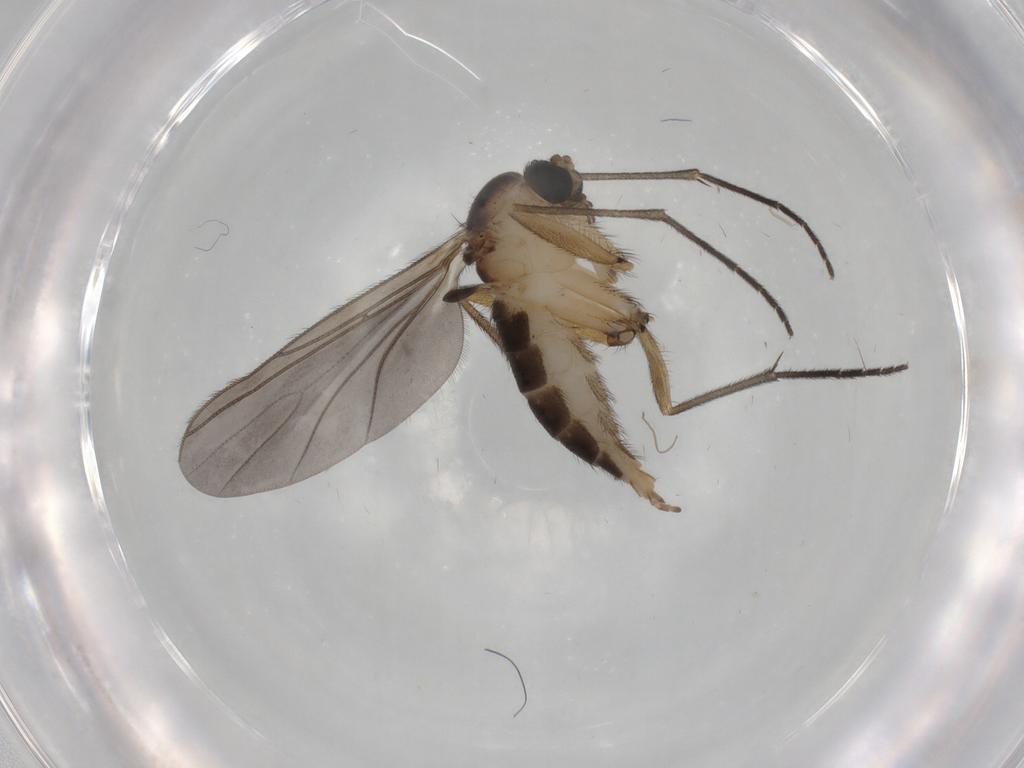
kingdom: Animalia
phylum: Arthropoda
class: Insecta
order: Diptera
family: Sciaridae
